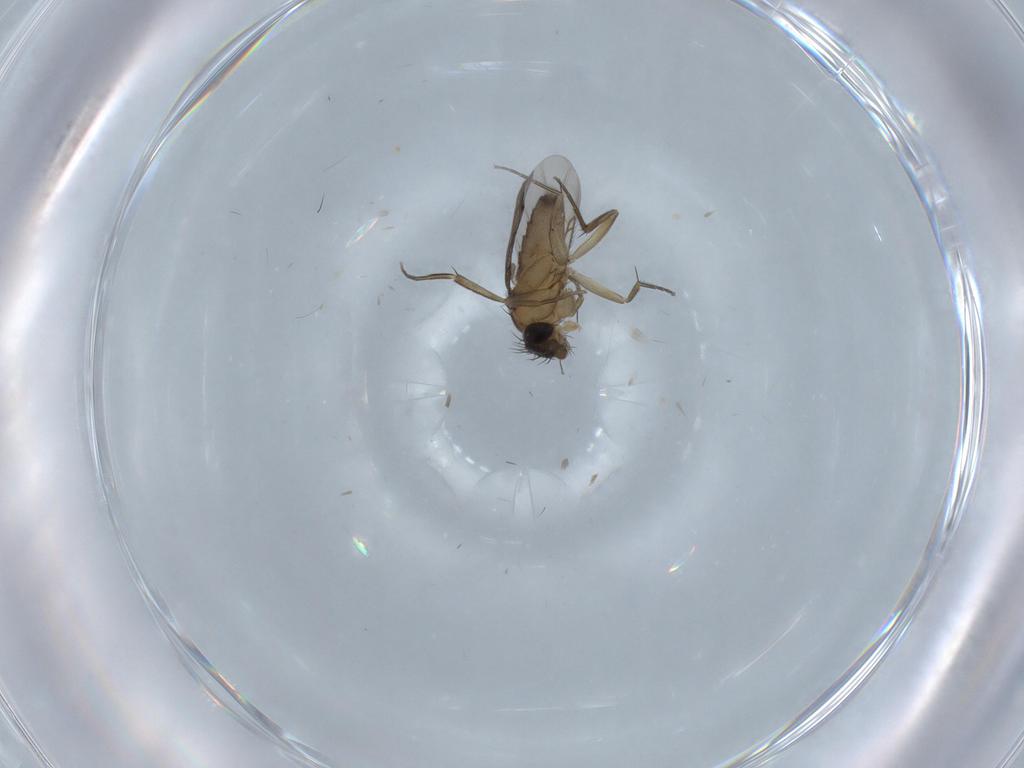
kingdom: Animalia
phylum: Arthropoda
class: Insecta
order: Diptera
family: Phoridae
